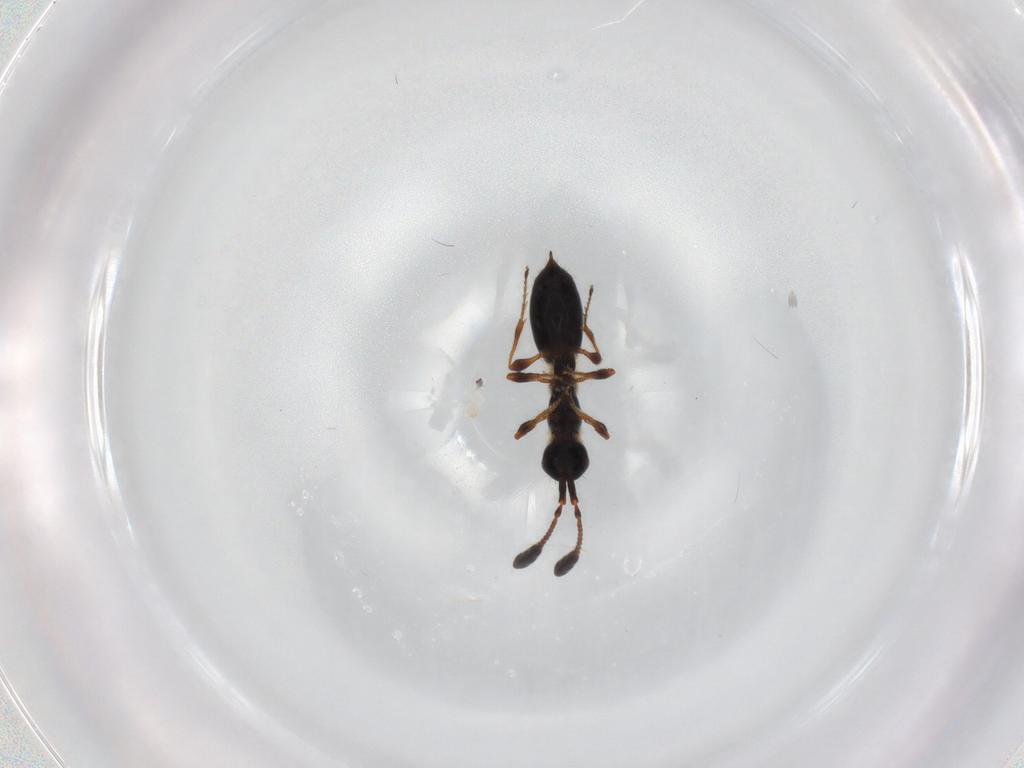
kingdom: Animalia
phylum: Arthropoda
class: Insecta
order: Hymenoptera
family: Diapriidae
